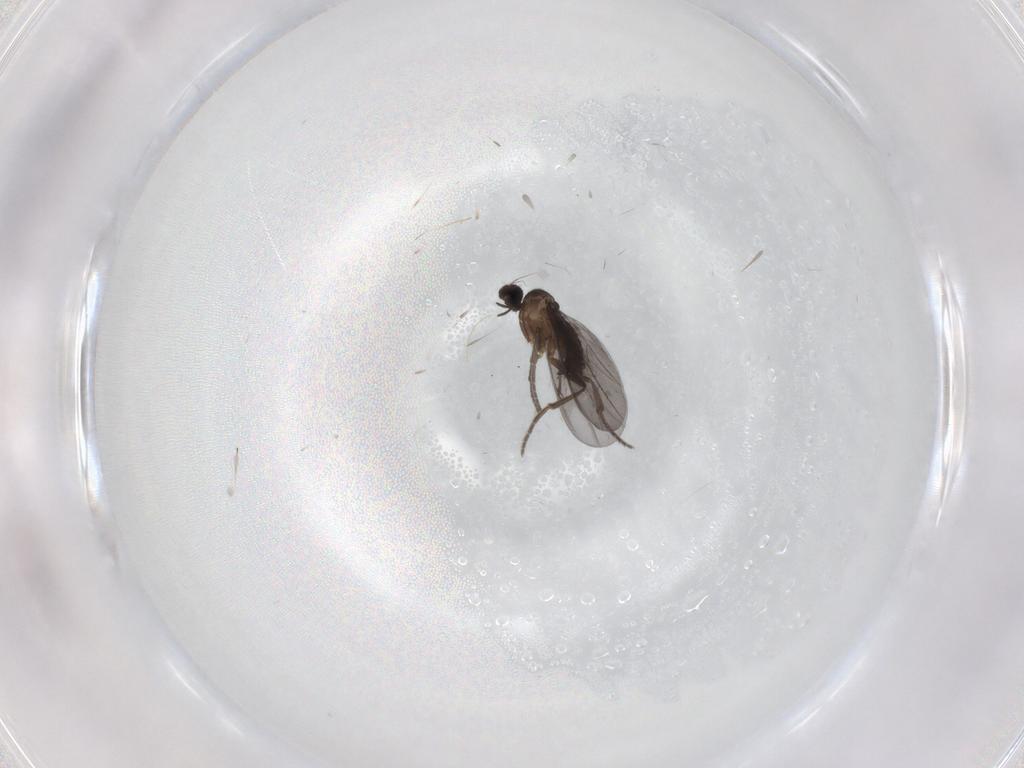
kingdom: Animalia
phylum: Arthropoda
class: Insecta
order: Diptera
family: Phoridae
